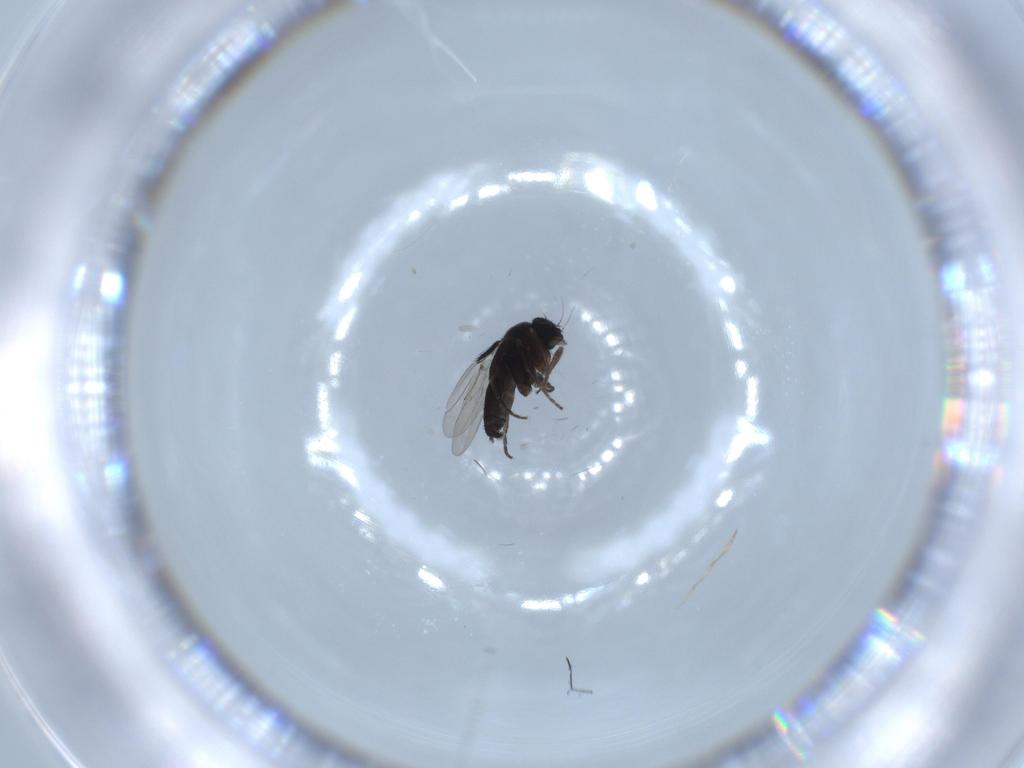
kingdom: Animalia
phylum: Arthropoda
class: Insecta
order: Diptera
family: Phoridae
